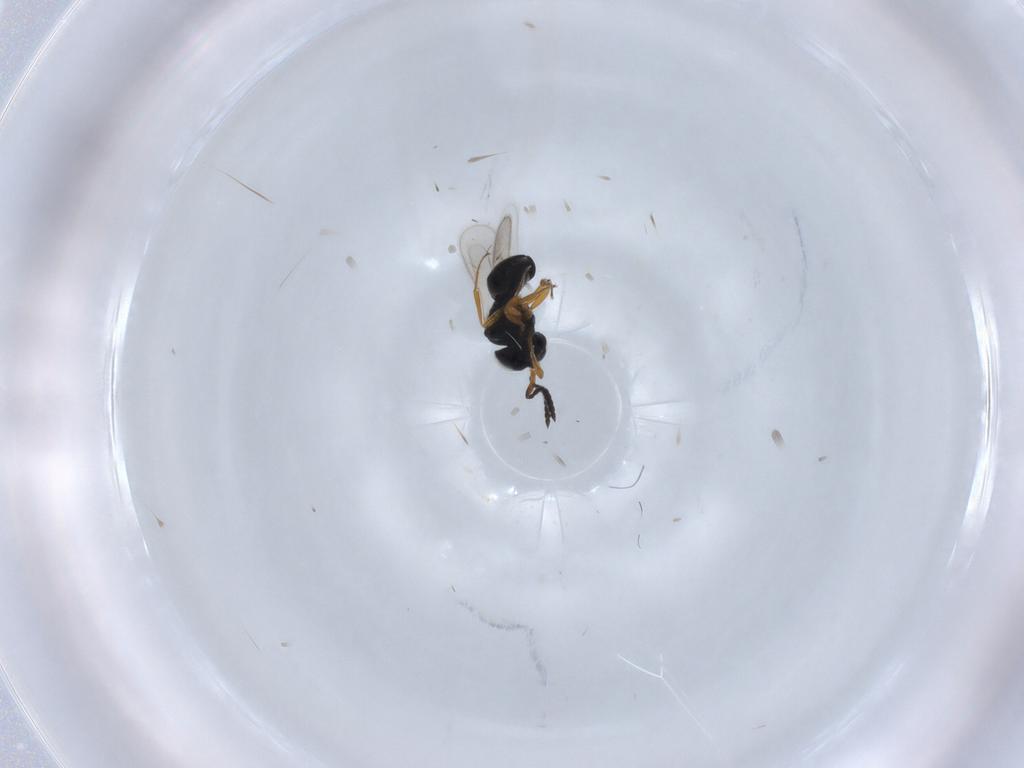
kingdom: Animalia
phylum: Arthropoda
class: Insecta
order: Hymenoptera
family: Scelionidae
